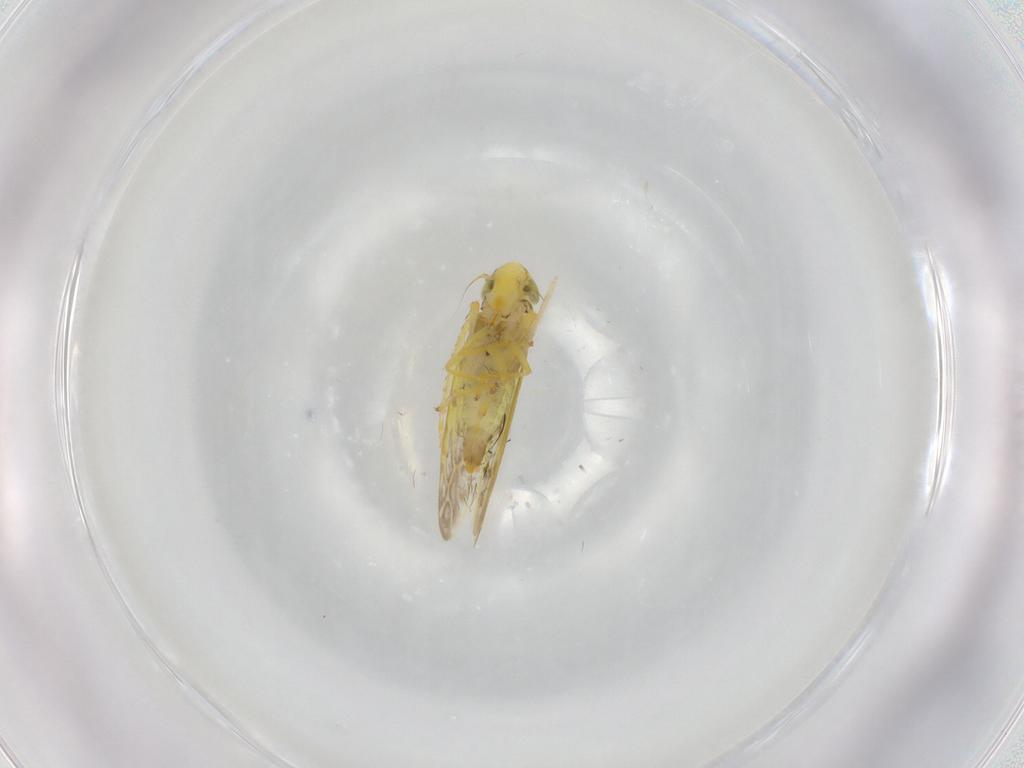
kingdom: Animalia
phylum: Arthropoda
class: Insecta
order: Hemiptera
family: Cicadellidae
